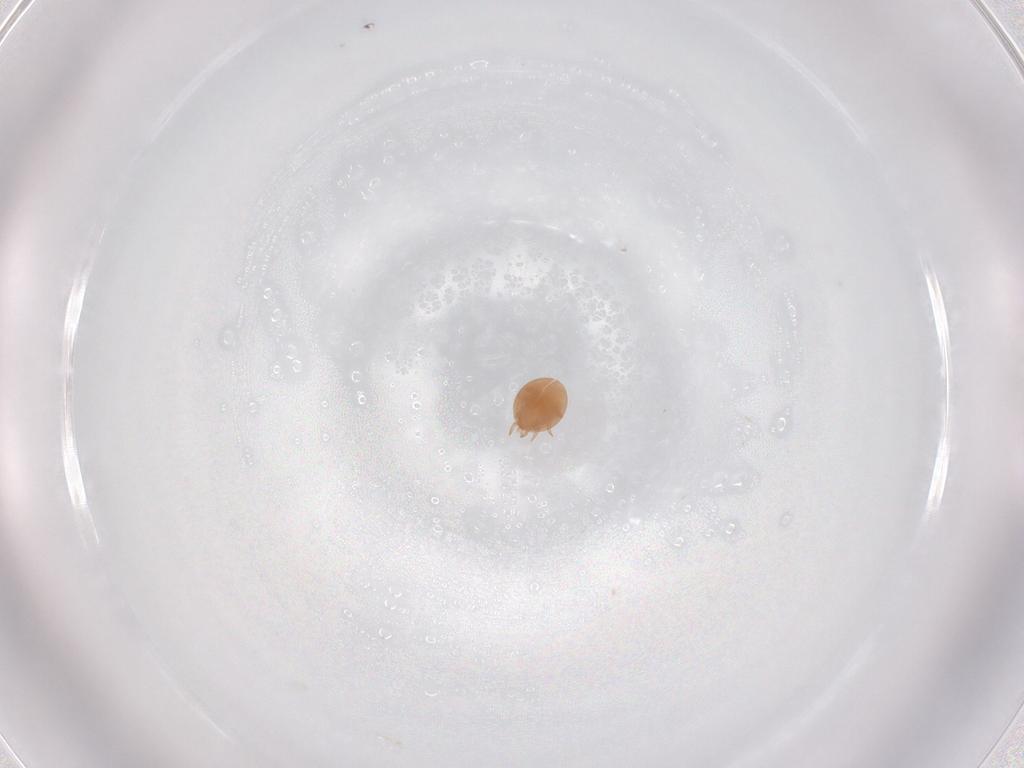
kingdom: Animalia
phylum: Arthropoda
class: Arachnida
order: Mesostigmata
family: Trematuridae
